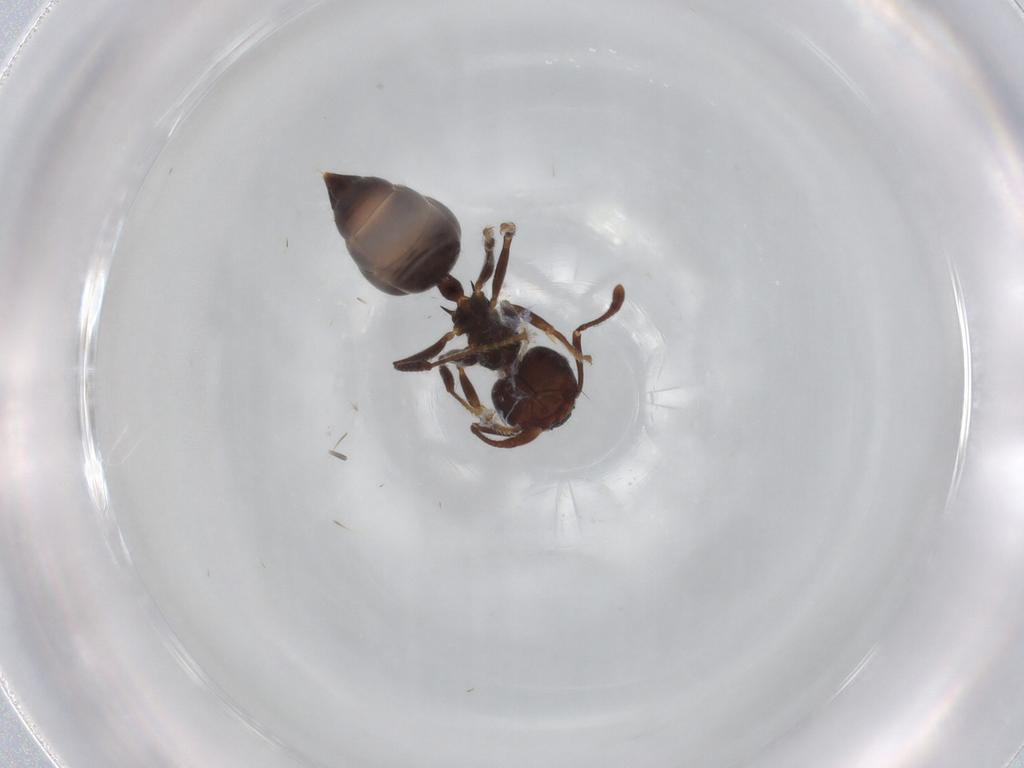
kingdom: Animalia
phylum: Arthropoda
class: Insecta
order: Hymenoptera
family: Formicidae
